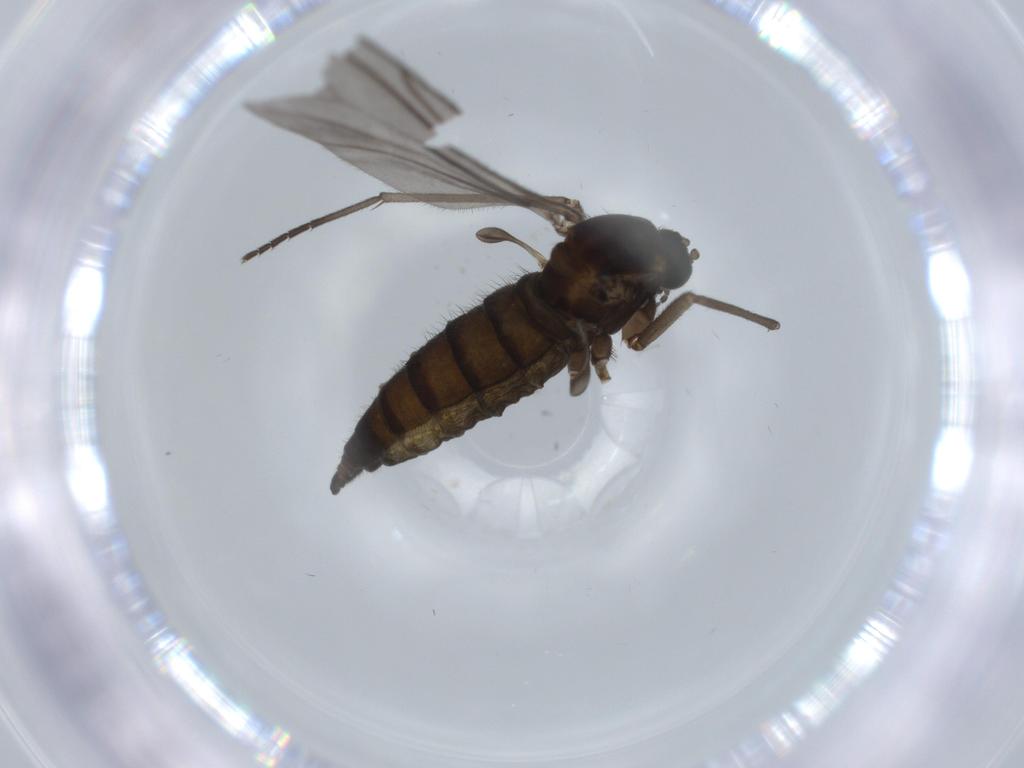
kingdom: Animalia
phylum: Arthropoda
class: Insecta
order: Diptera
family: Sciaridae
